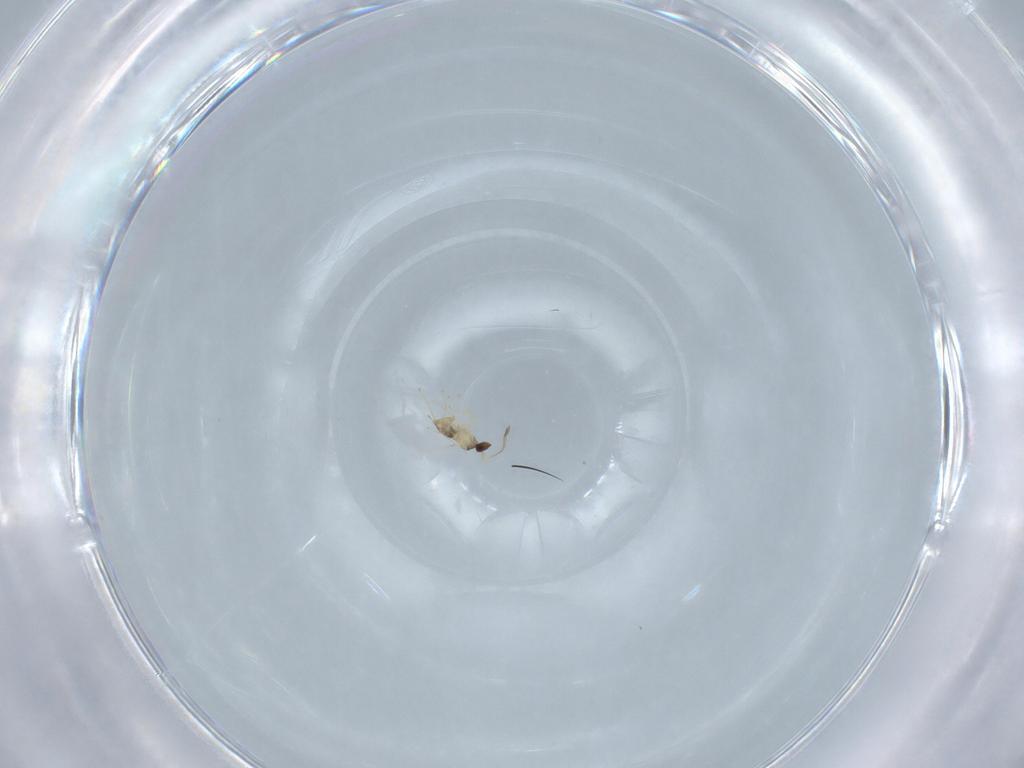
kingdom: Animalia
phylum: Arthropoda
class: Insecta
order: Hymenoptera
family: Mymaridae
